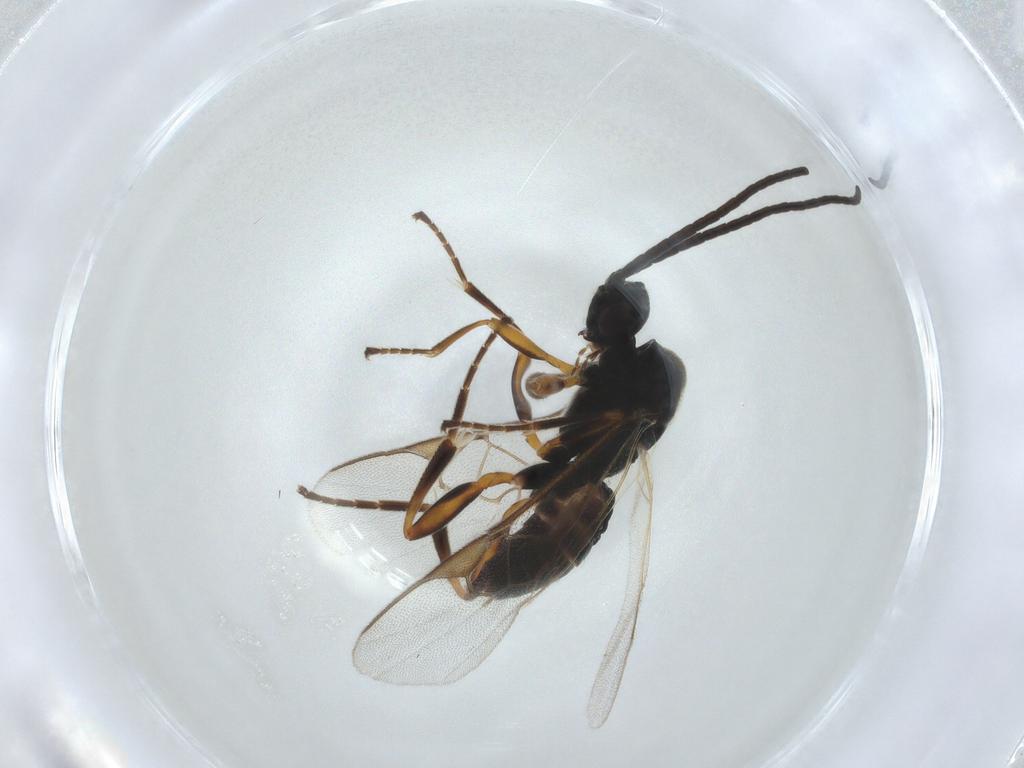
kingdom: Animalia
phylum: Arthropoda
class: Insecta
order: Hymenoptera
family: Braconidae
